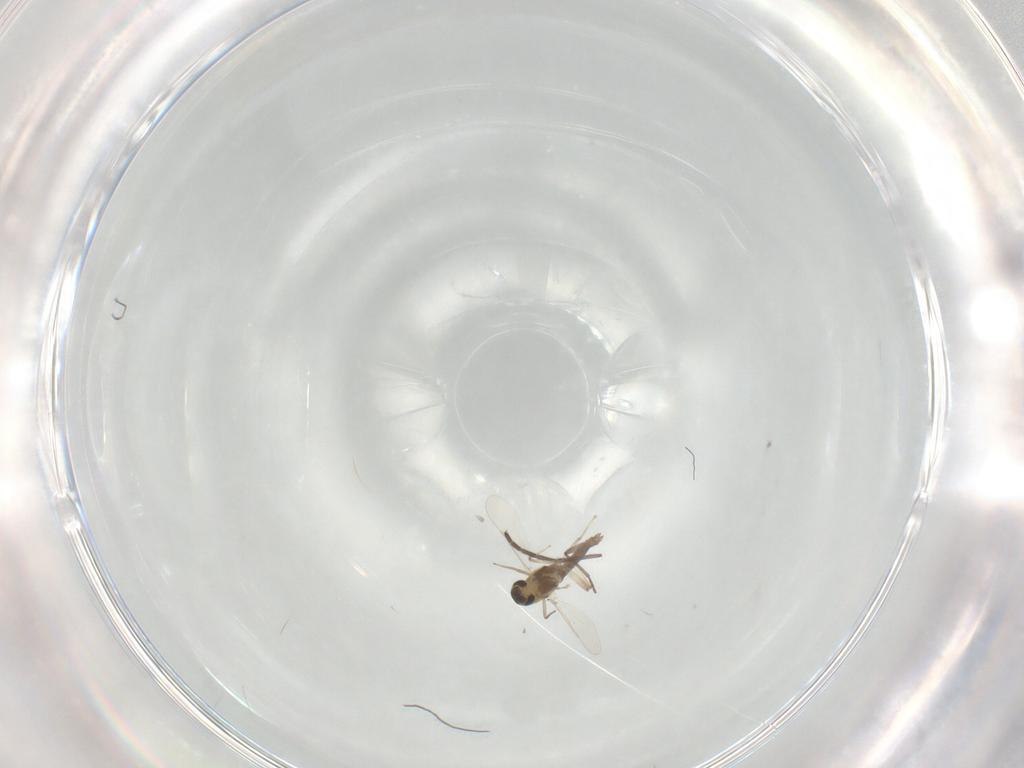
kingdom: Animalia
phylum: Arthropoda
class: Insecta
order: Diptera
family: Chironomidae
